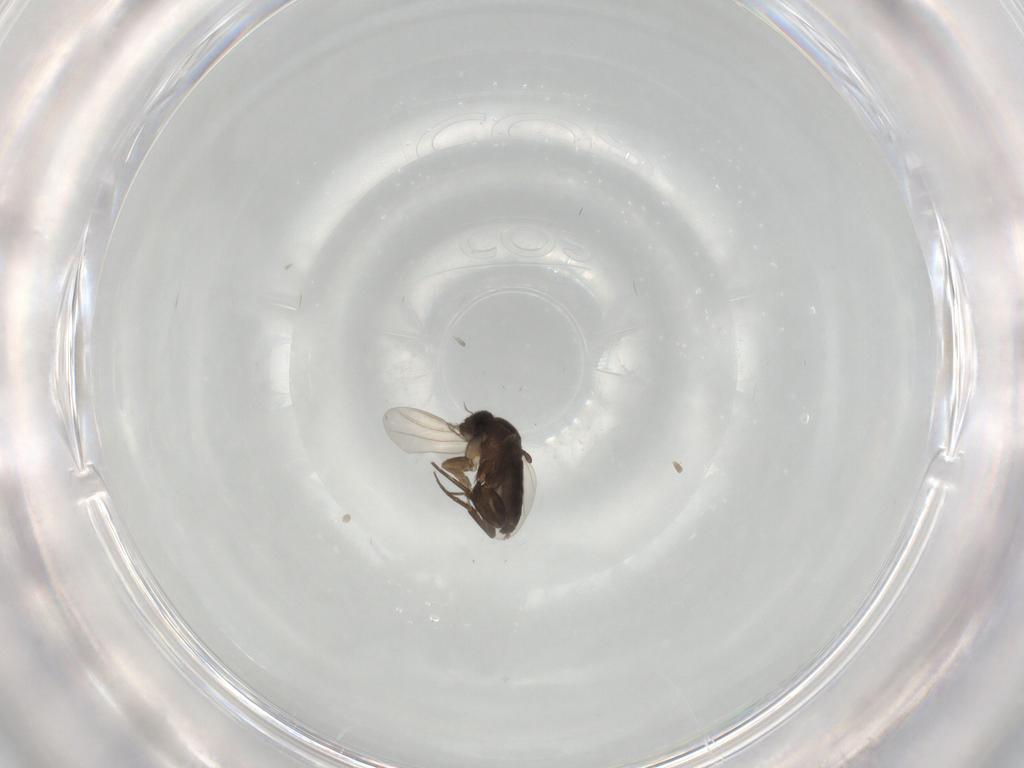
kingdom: Animalia
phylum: Arthropoda
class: Insecta
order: Diptera
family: Phoridae
